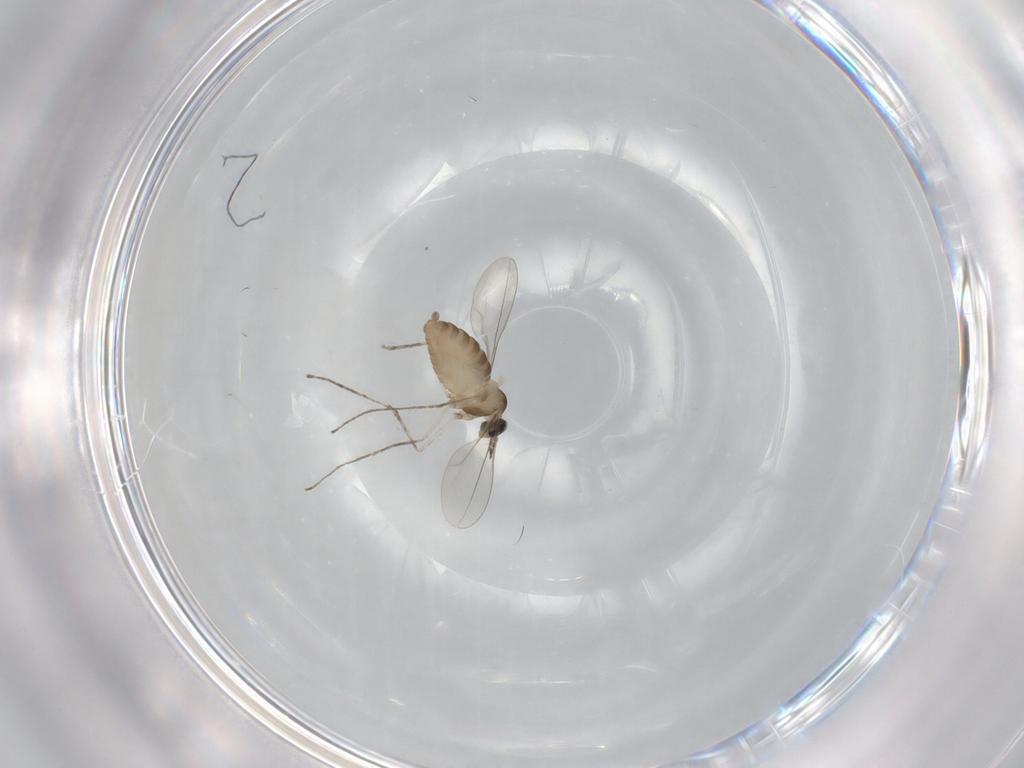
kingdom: Animalia
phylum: Arthropoda
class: Insecta
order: Diptera
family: Cecidomyiidae
